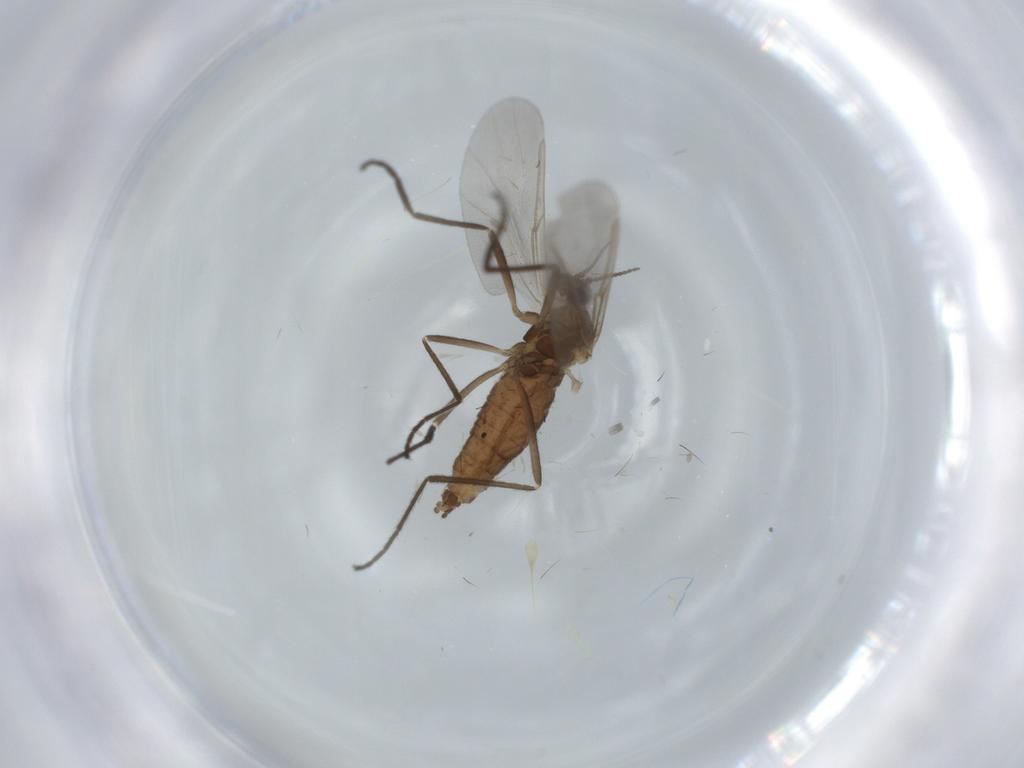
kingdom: Animalia
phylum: Arthropoda
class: Insecta
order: Diptera
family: Cecidomyiidae
